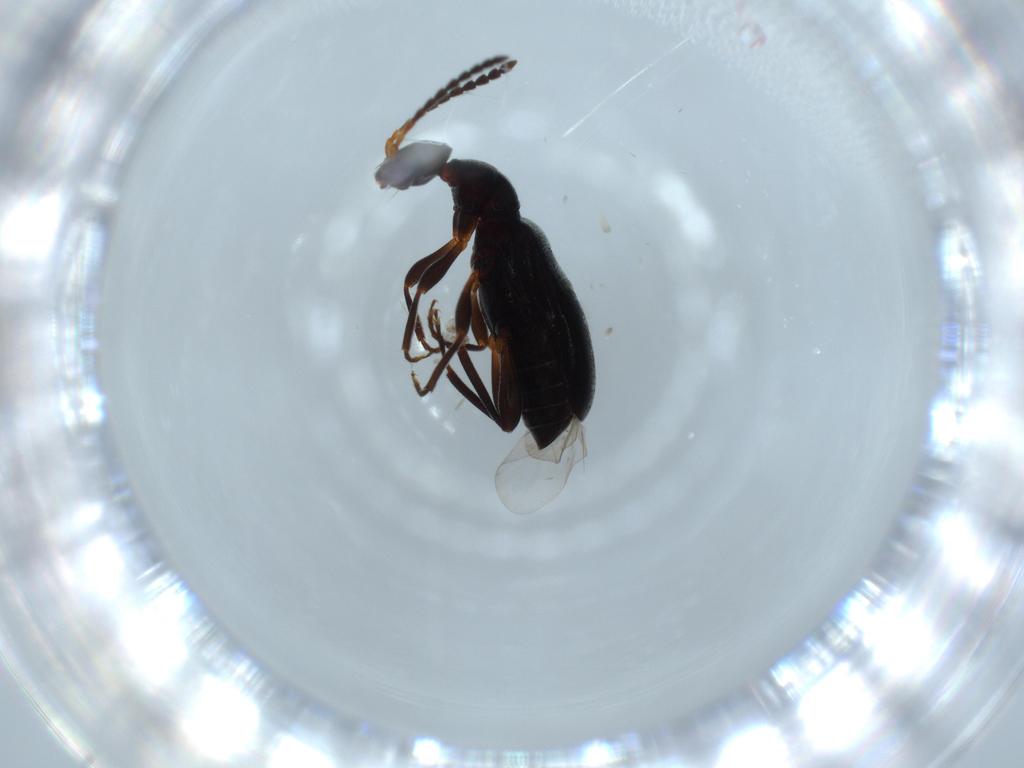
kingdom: Animalia
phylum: Arthropoda
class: Insecta
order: Coleoptera
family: Anthicidae
